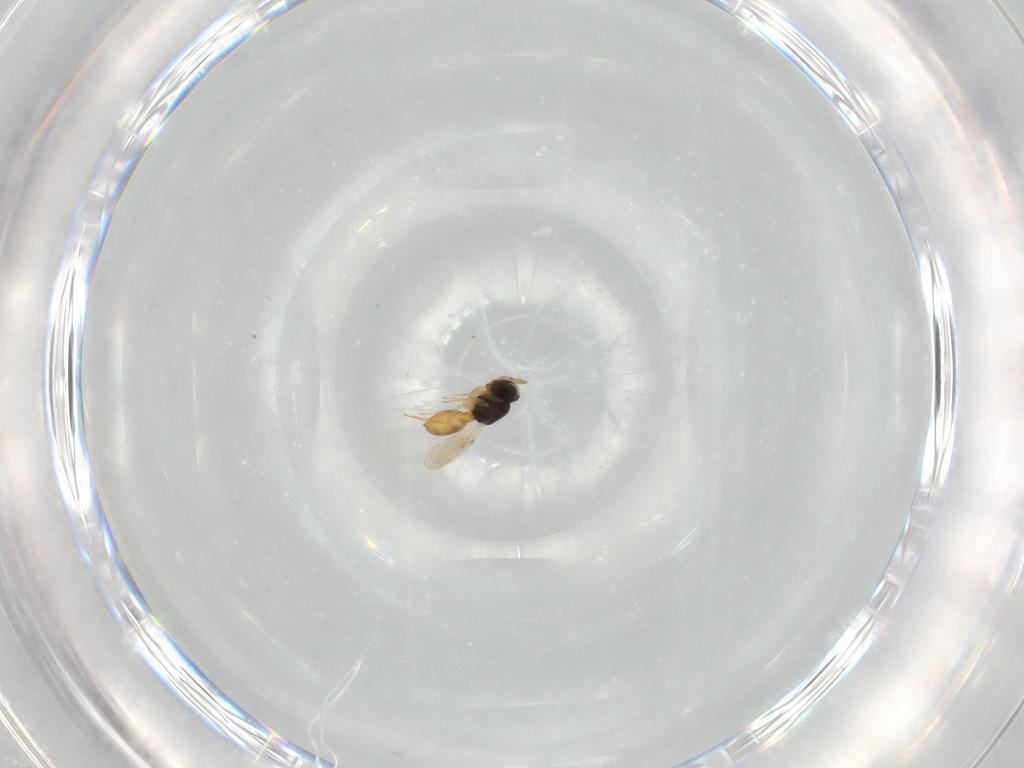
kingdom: Animalia
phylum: Arthropoda
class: Insecta
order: Hymenoptera
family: Scelionidae
